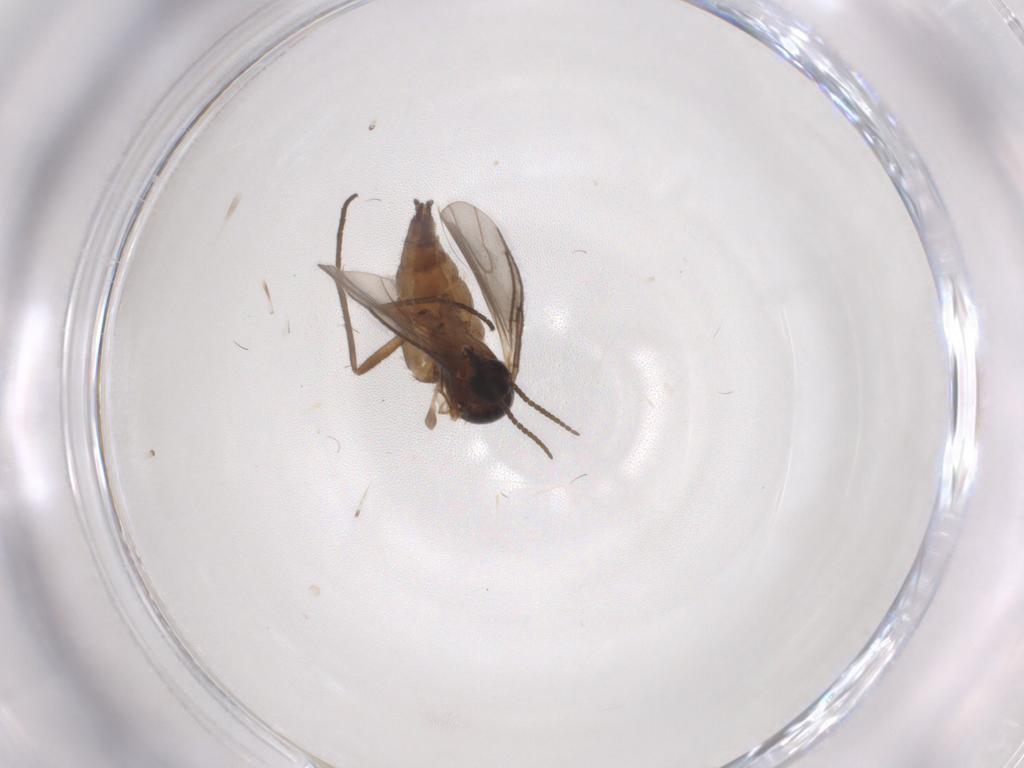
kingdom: Animalia
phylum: Arthropoda
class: Insecta
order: Diptera
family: Sciaridae
